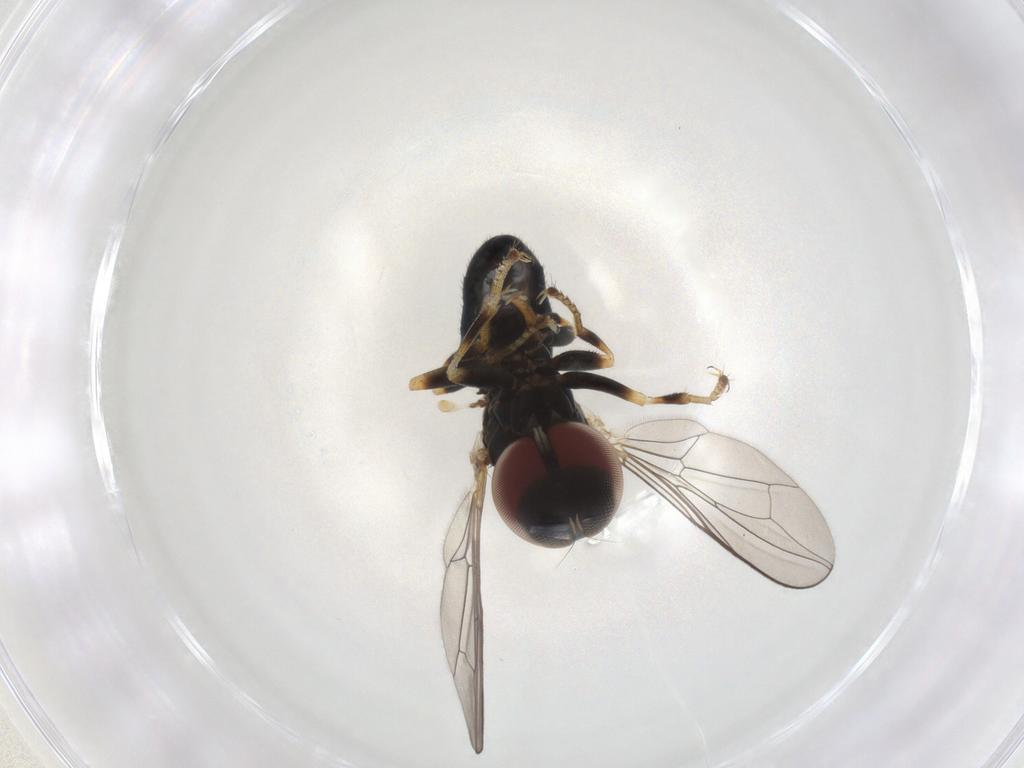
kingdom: Animalia
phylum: Arthropoda
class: Insecta
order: Diptera
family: Pipunculidae
